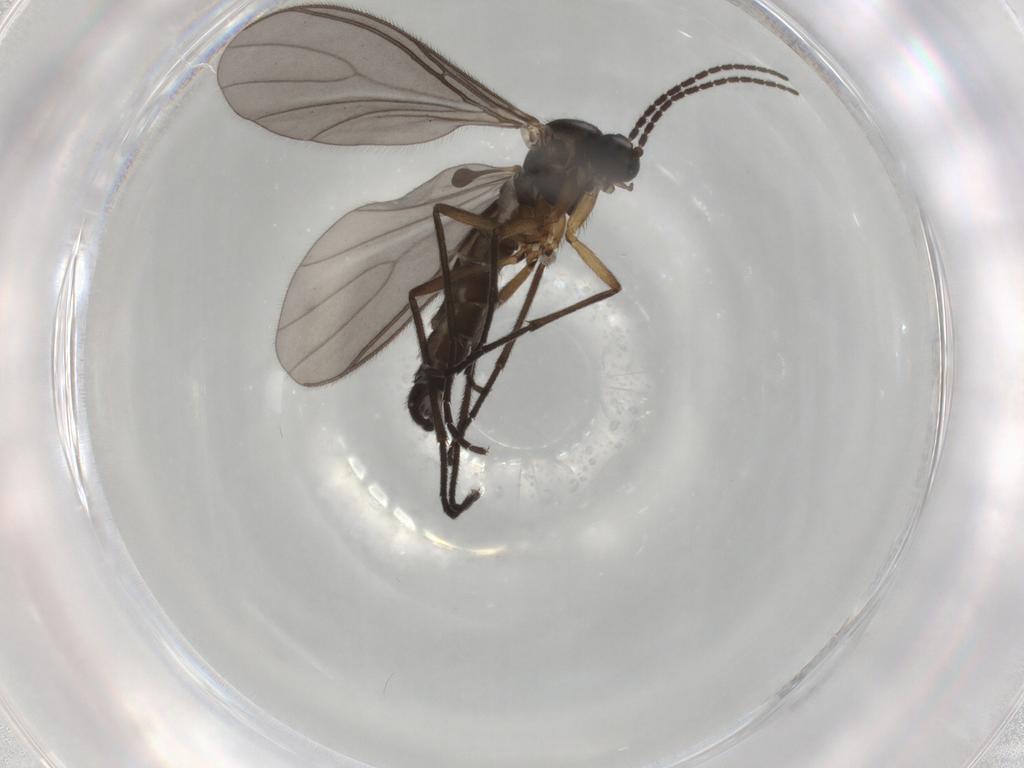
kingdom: Animalia
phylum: Arthropoda
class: Insecta
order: Diptera
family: Sciaridae
